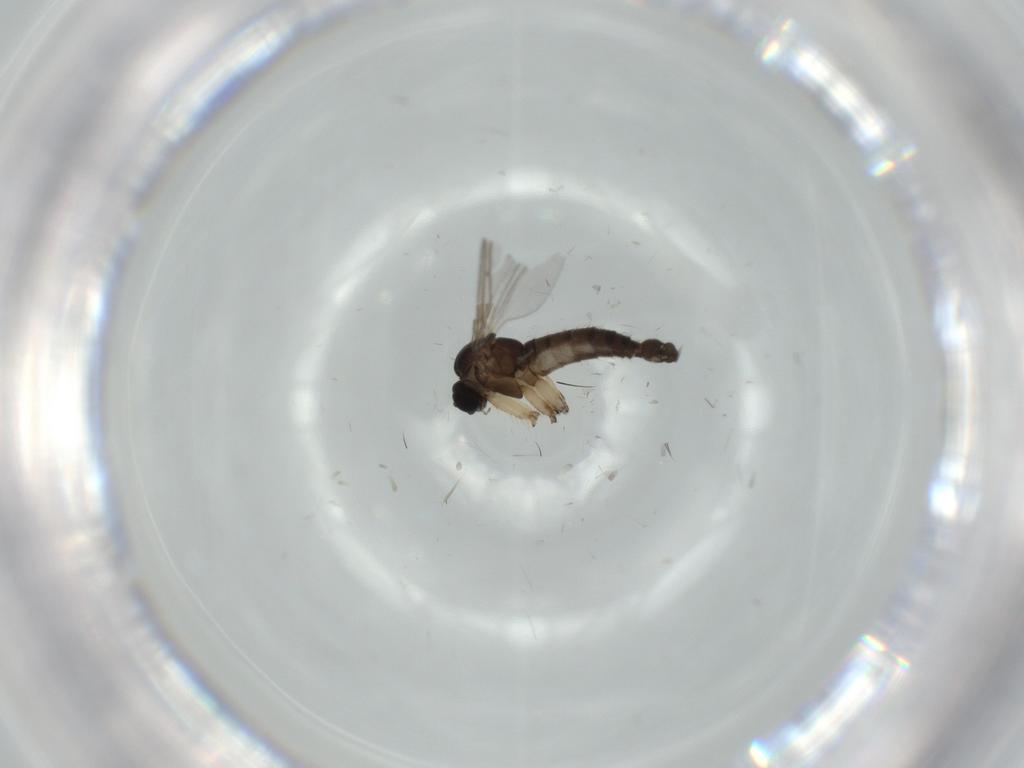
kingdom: Animalia
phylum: Arthropoda
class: Insecta
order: Diptera
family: Sciaridae
